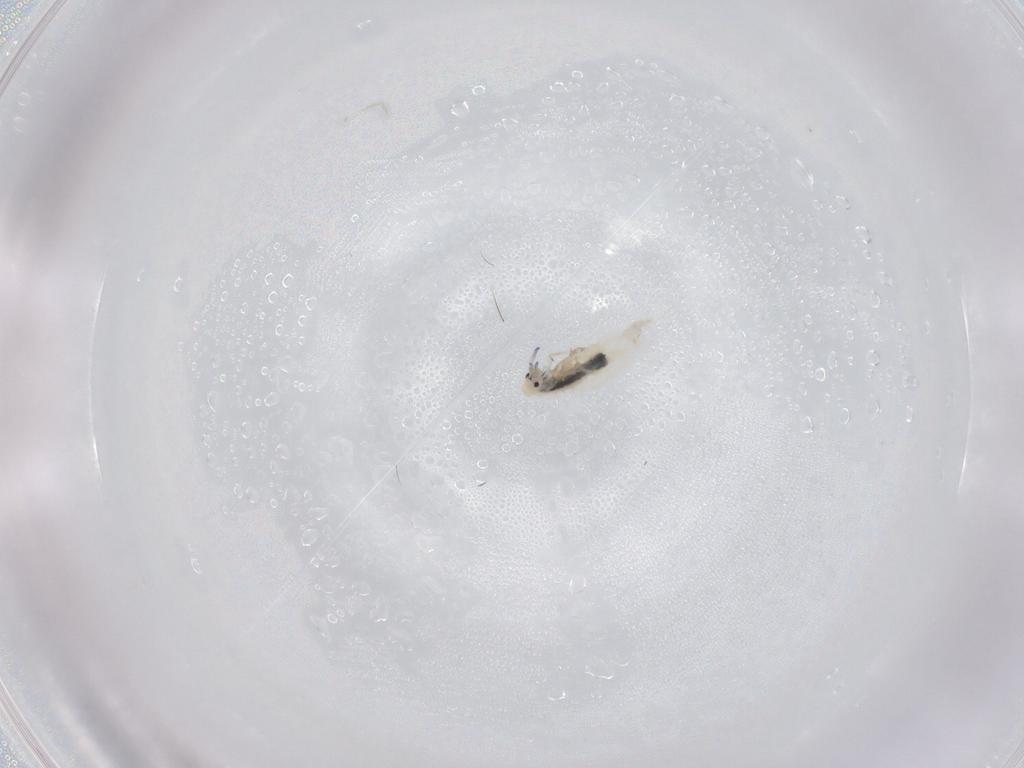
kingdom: Animalia
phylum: Arthropoda
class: Collembola
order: Entomobryomorpha
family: Entomobryidae
